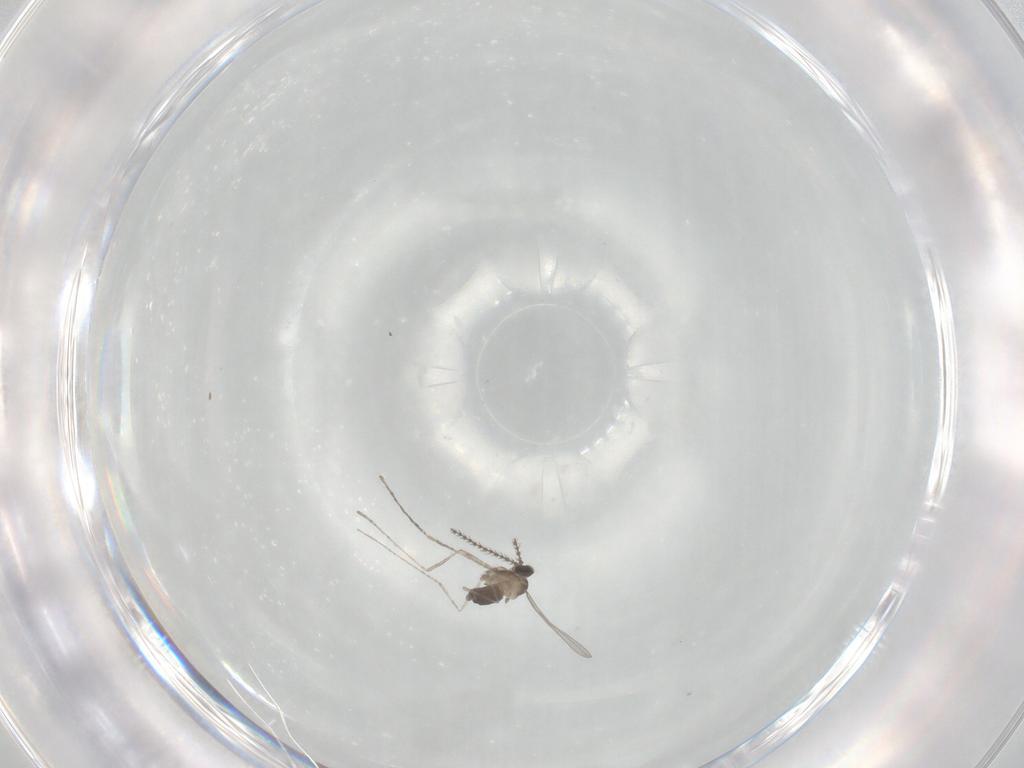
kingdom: Animalia
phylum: Arthropoda
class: Insecta
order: Diptera
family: Cecidomyiidae
